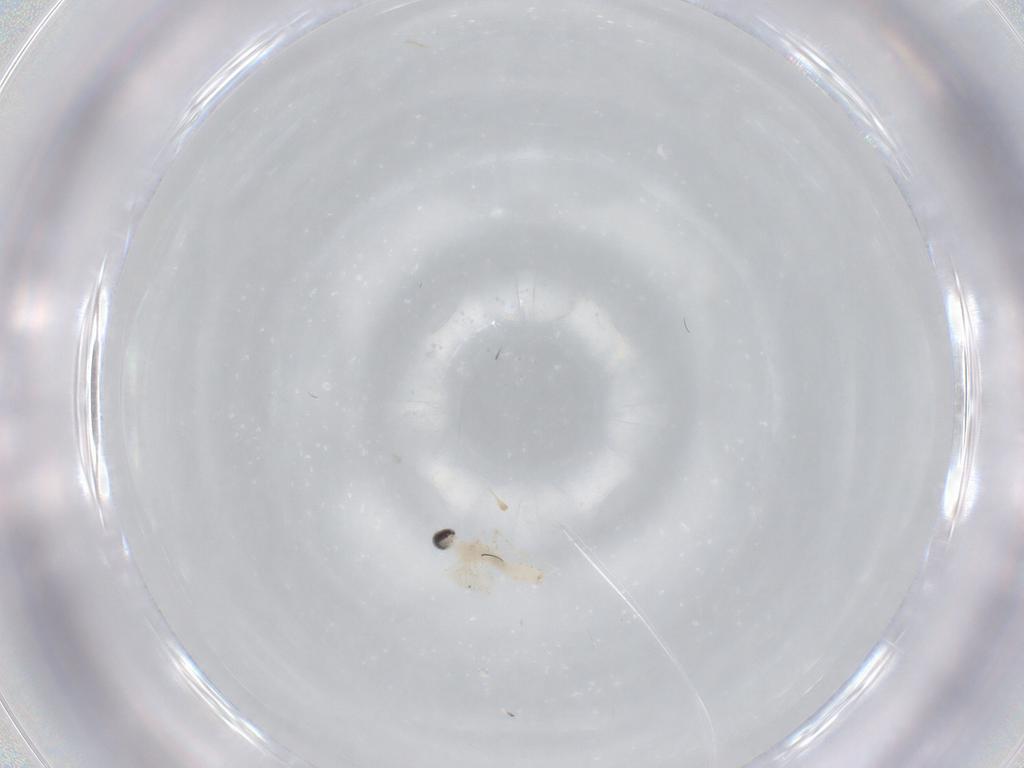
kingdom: Animalia
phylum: Arthropoda
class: Insecta
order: Diptera
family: Cecidomyiidae
